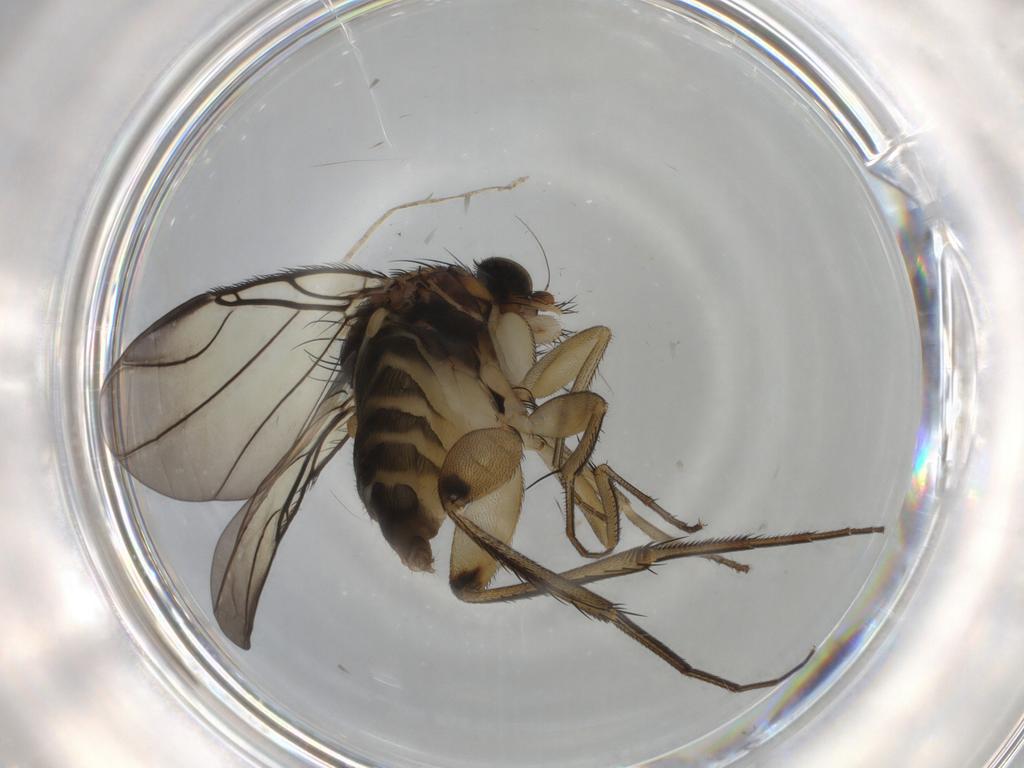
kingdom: Animalia
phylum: Arthropoda
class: Insecta
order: Diptera
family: Phoridae
